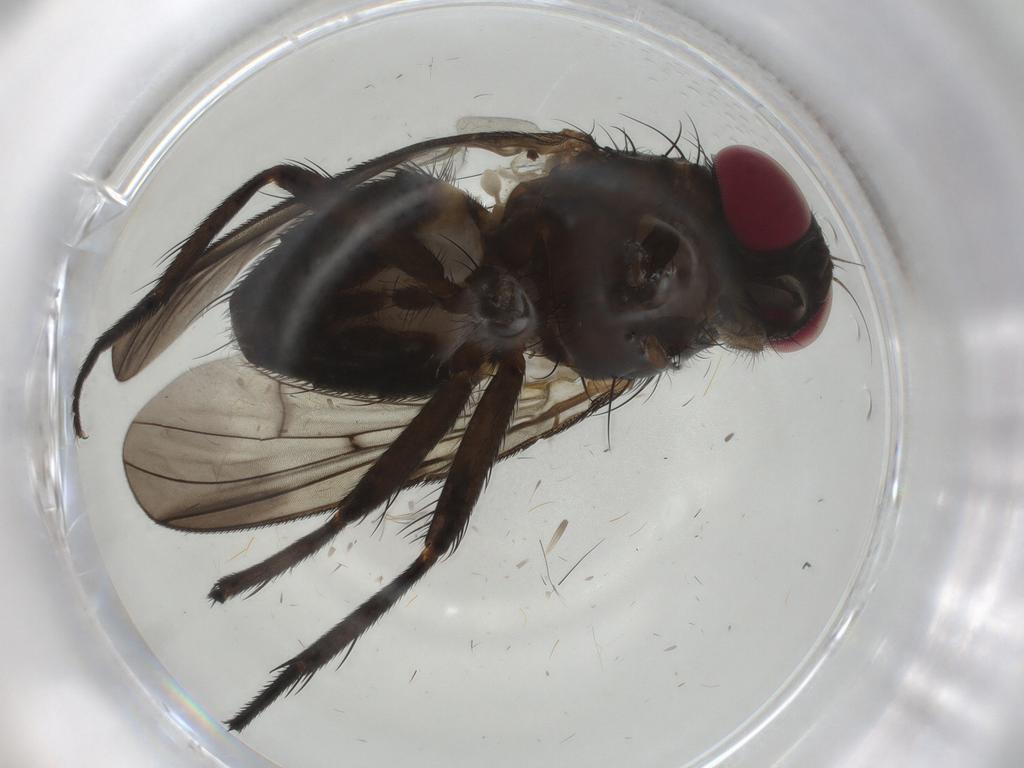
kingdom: Animalia
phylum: Arthropoda
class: Insecta
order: Diptera
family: Fanniidae
